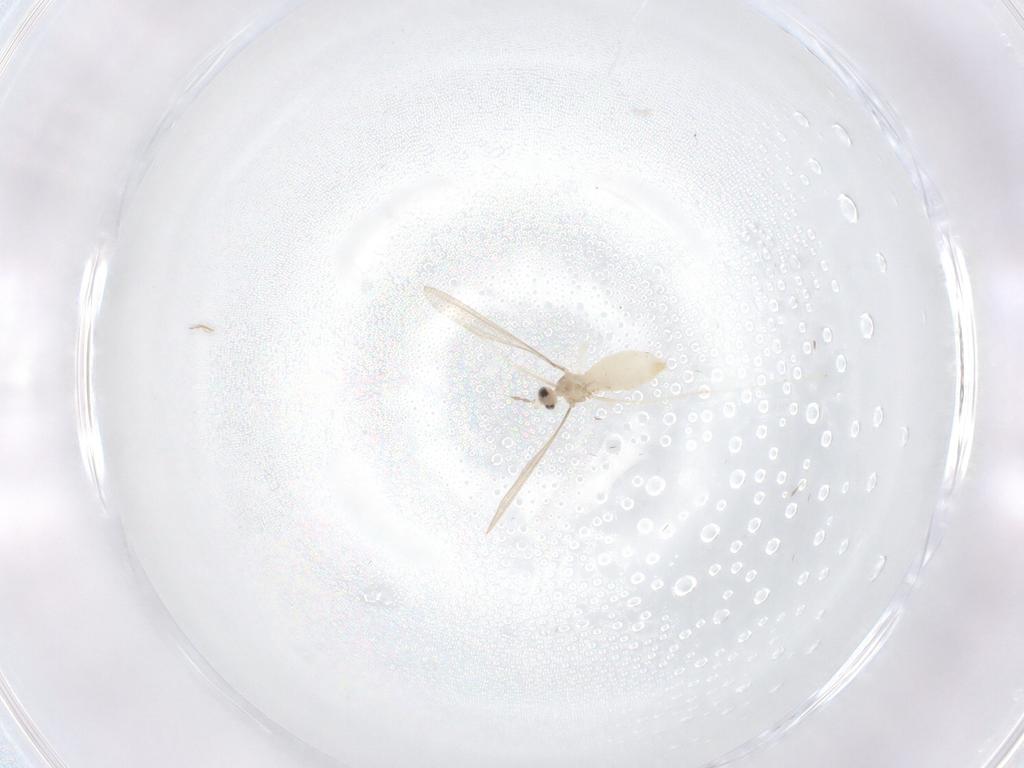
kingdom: Animalia
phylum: Arthropoda
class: Insecta
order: Diptera
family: Cecidomyiidae
